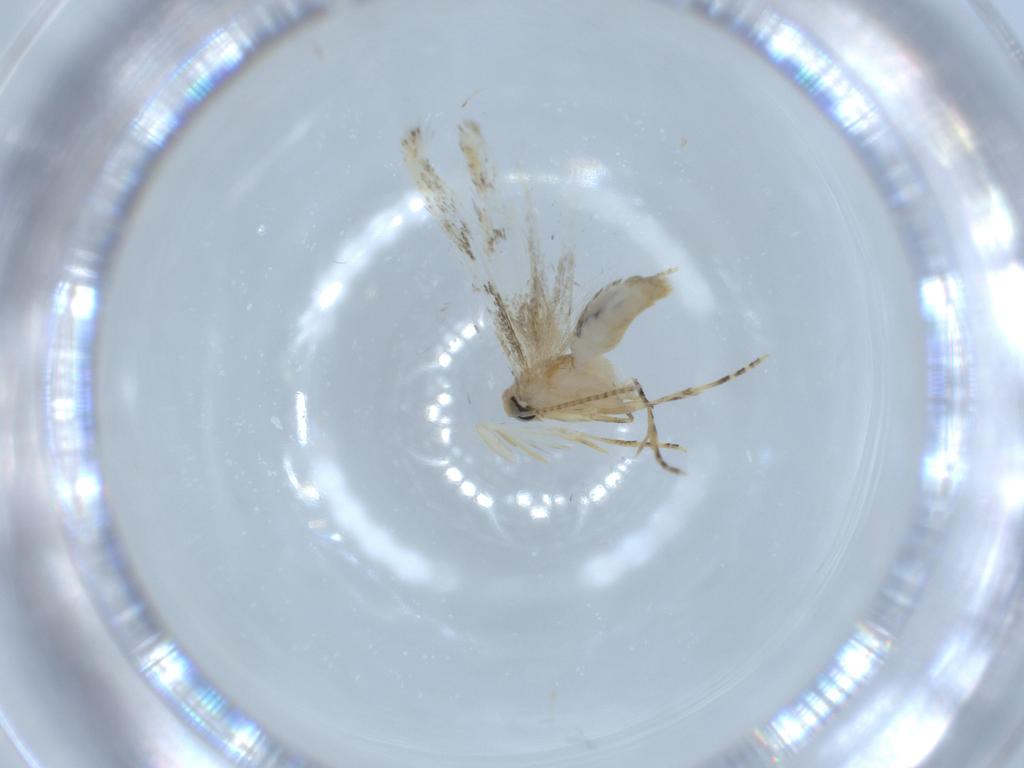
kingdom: Animalia
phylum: Arthropoda
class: Insecta
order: Lepidoptera
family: Bucculatricidae
